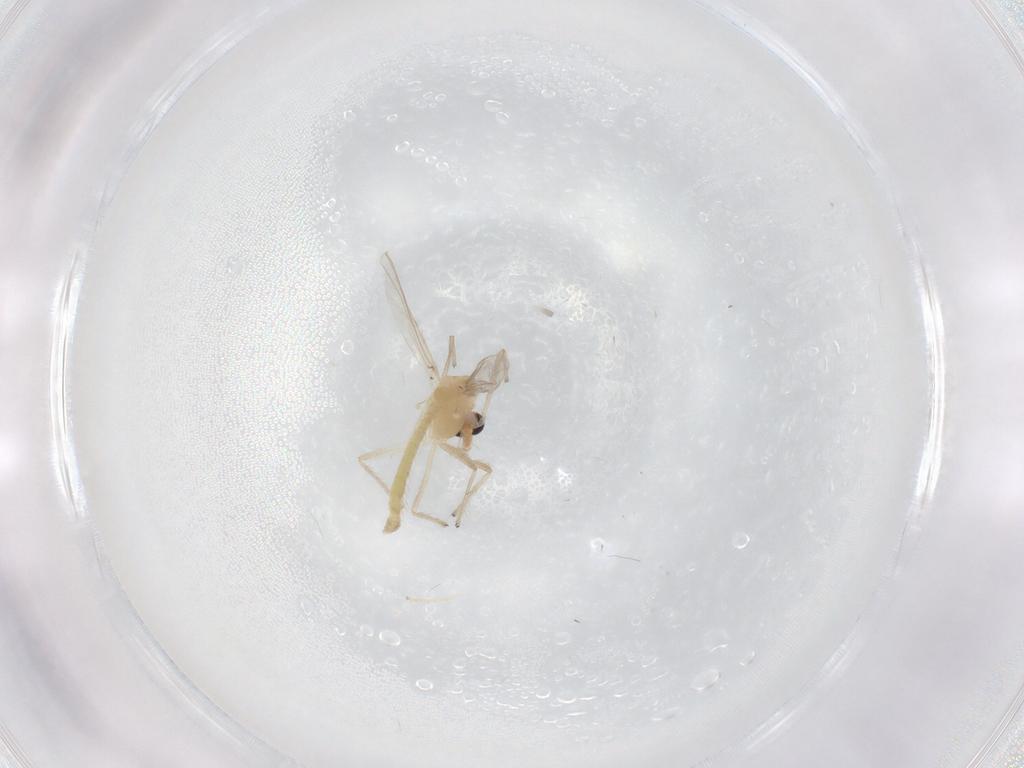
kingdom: Animalia
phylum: Arthropoda
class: Insecta
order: Diptera
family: Chironomidae
